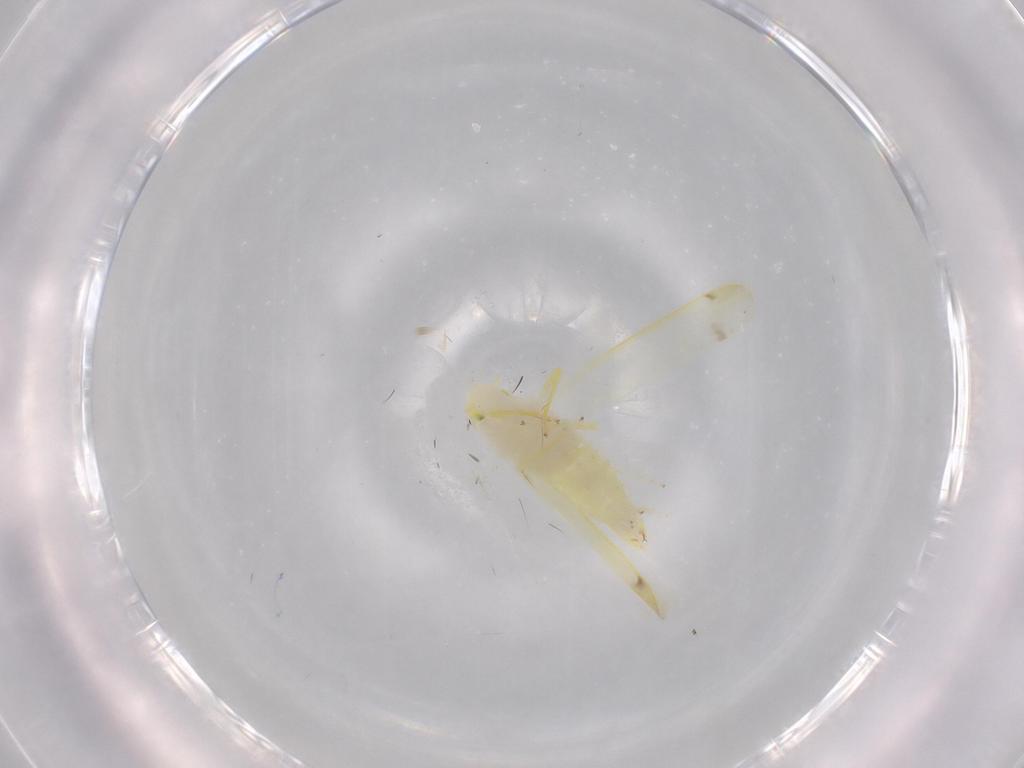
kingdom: Animalia
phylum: Arthropoda
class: Insecta
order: Hemiptera
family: Cicadellidae
